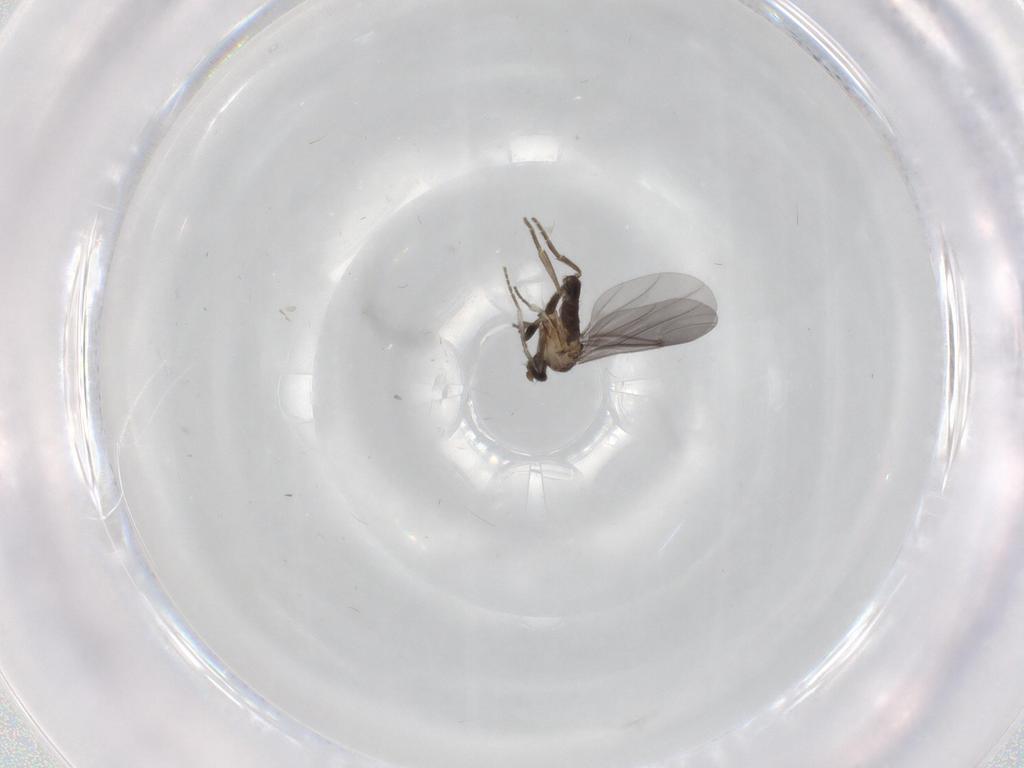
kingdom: Animalia
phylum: Arthropoda
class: Insecta
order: Diptera
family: Phoridae
